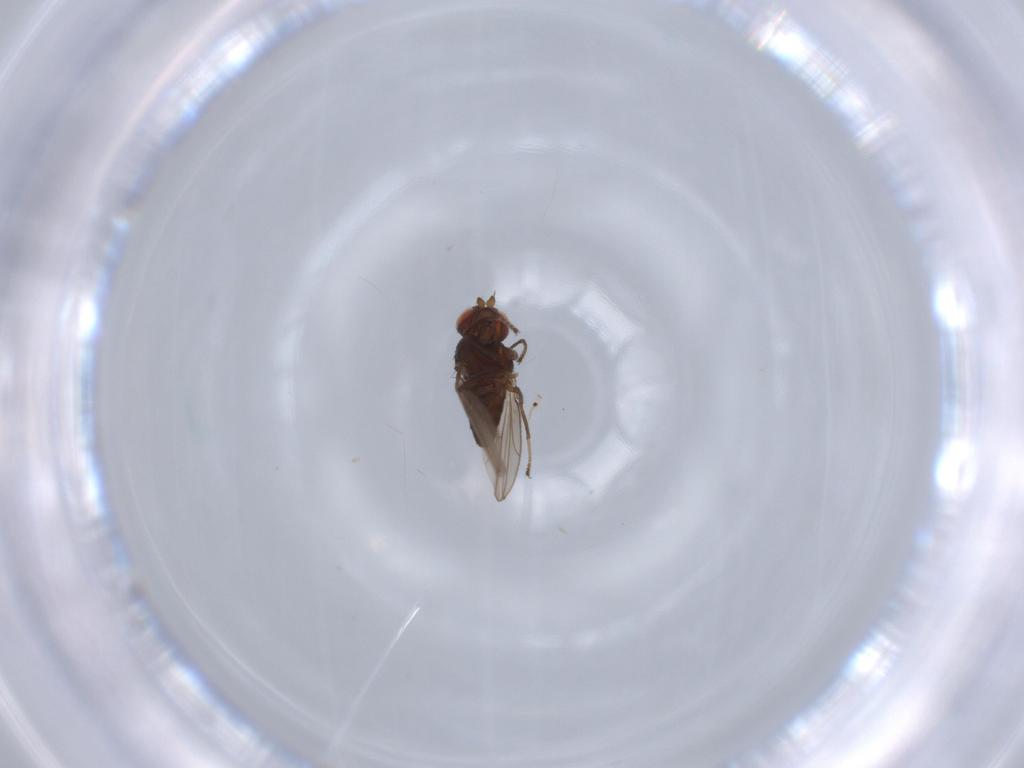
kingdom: Animalia
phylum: Arthropoda
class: Insecta
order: Diptera
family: Ephydridae
